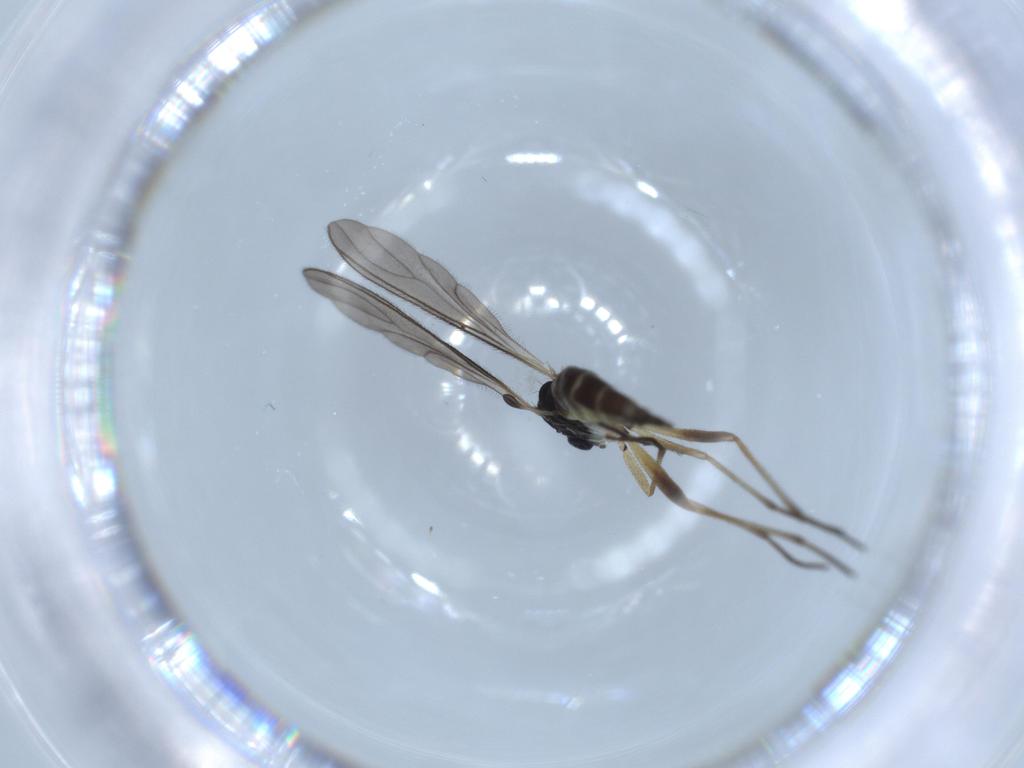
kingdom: Animalia
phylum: Arthropoda
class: Insecta
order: Diptera
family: Sciaridae
